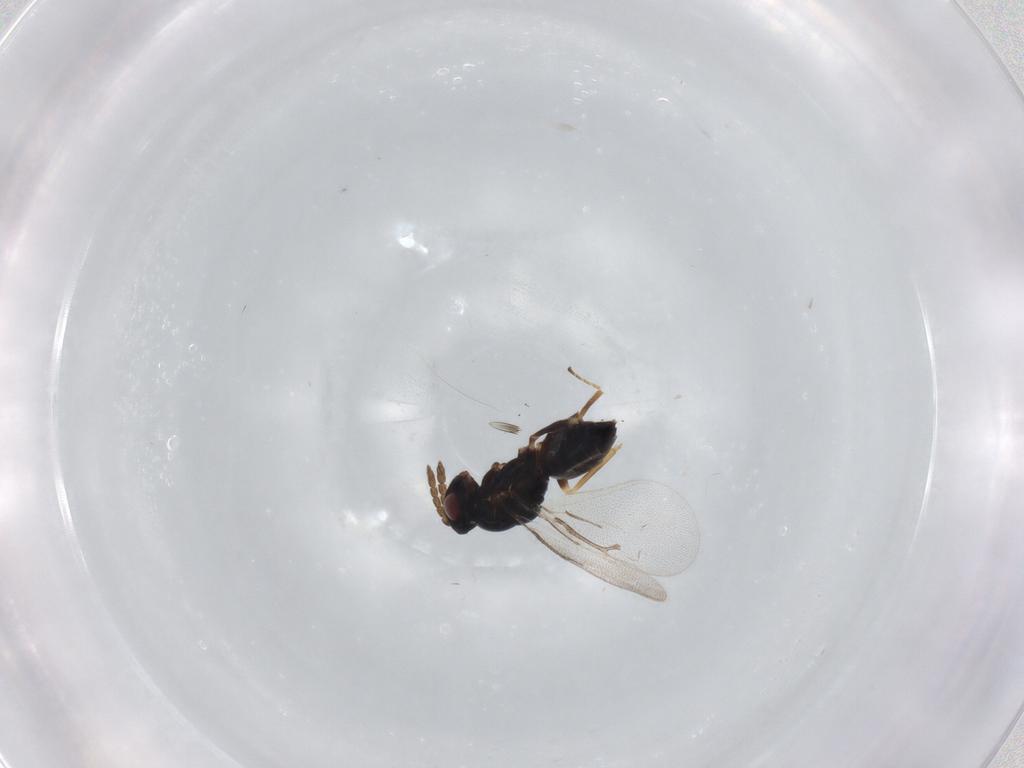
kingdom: Animalia
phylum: Arthropoda
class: Insecta
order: Hymenoptera
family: Eulophidae
